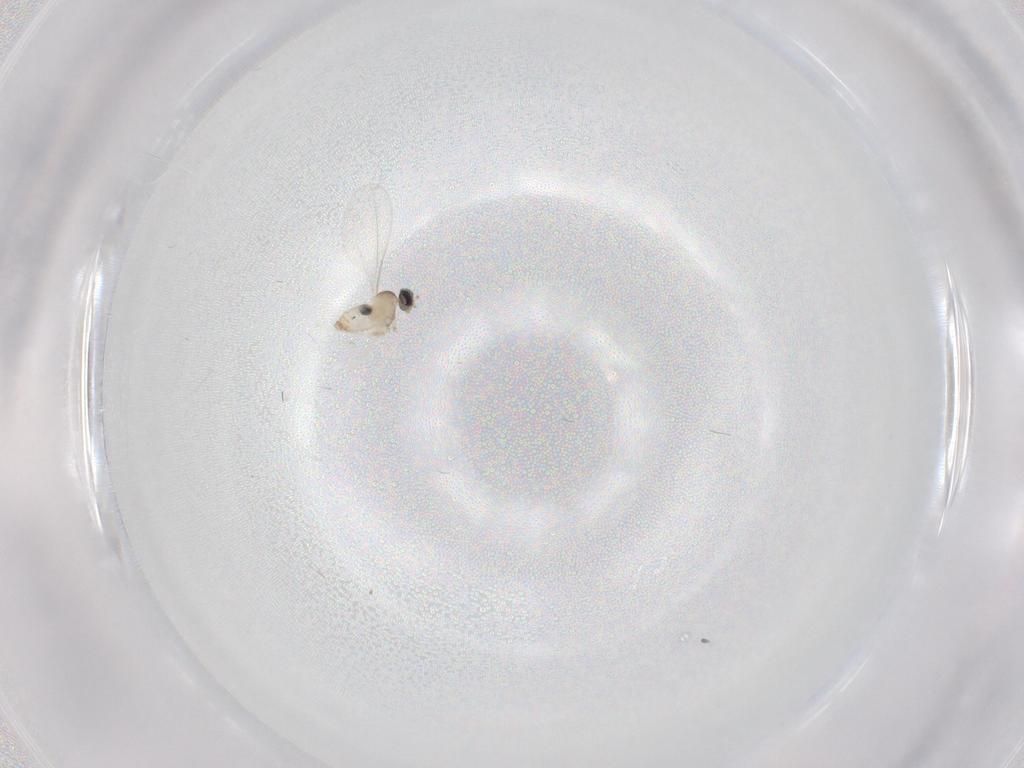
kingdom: Animalia
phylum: Arthropoda
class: Insecta
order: Diptera
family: Cecidomyiidae
